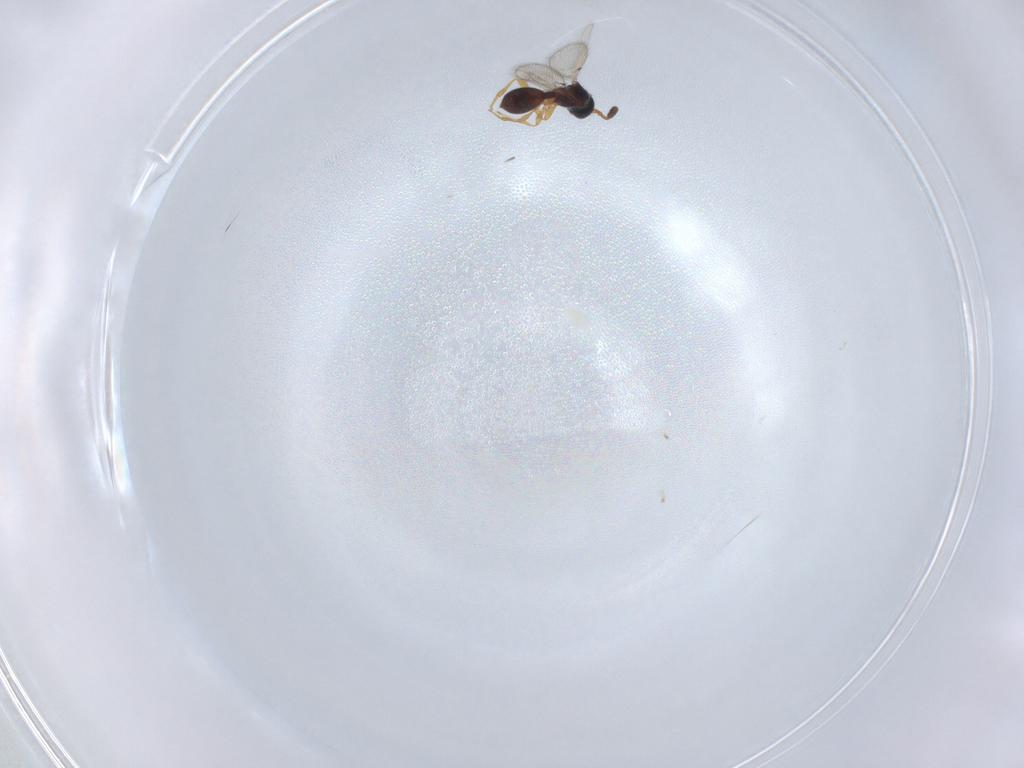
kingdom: Animalia
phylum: Arthropoda
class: Insecta
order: Hymenoptera
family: Diapriidae
